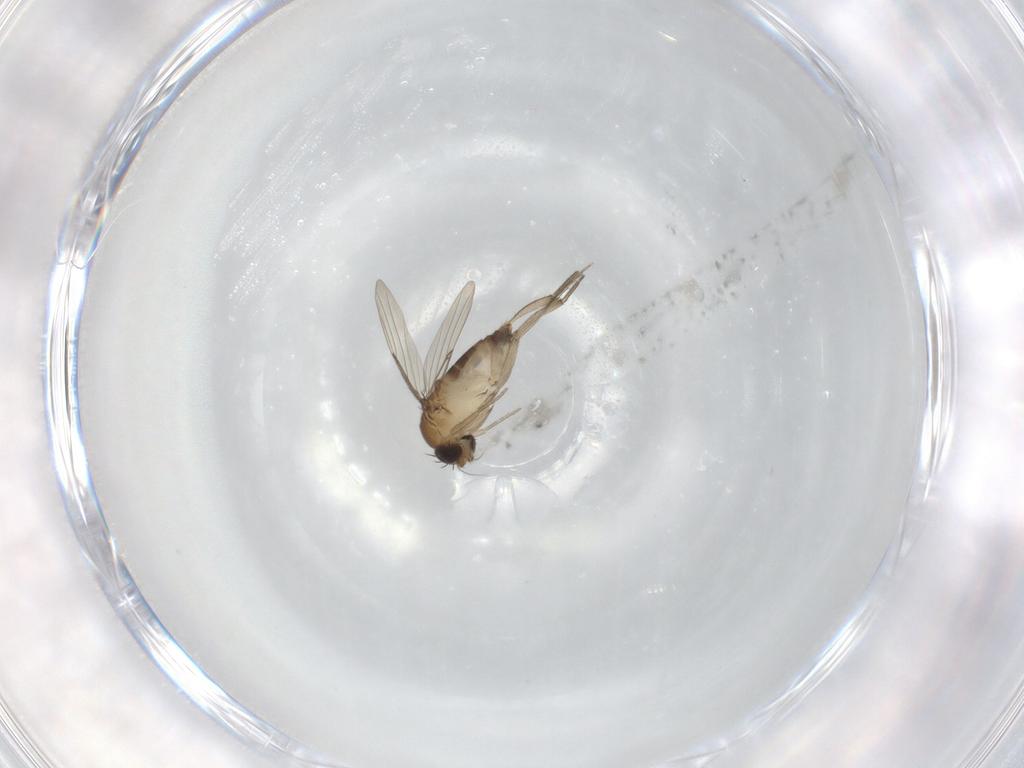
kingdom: Animalia
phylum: Arthropoda
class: Insecta
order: Diptera
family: Phoridae
